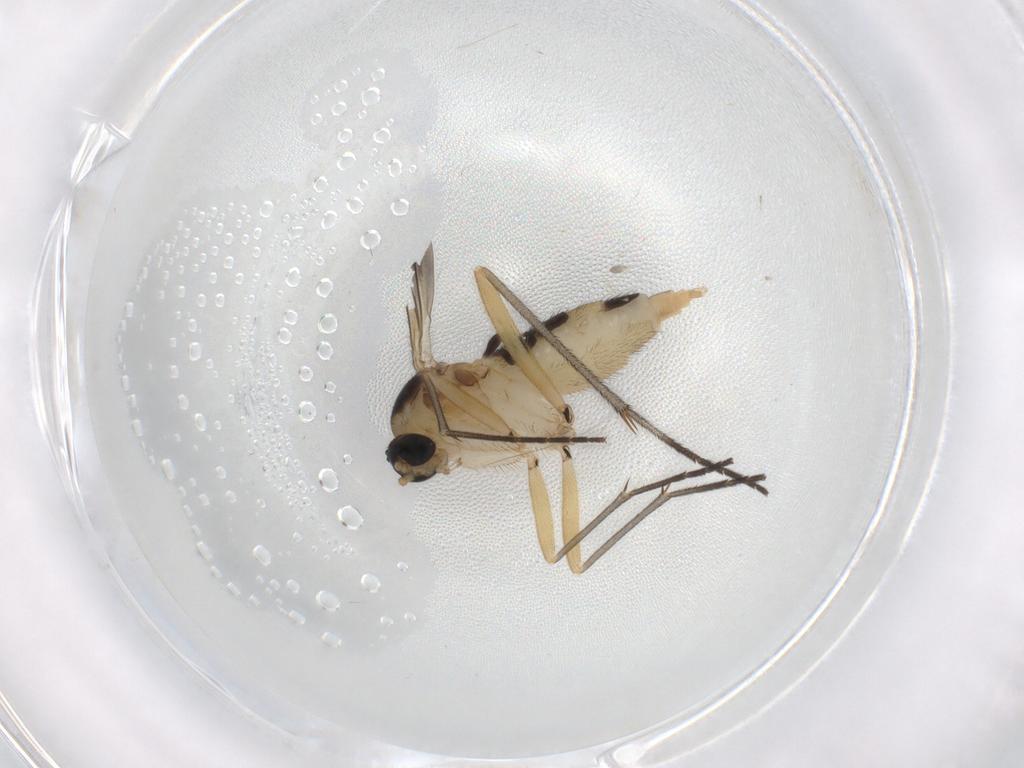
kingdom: Animalia
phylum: Arthropoda
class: Insecta
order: Diptera
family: Sciaridae
